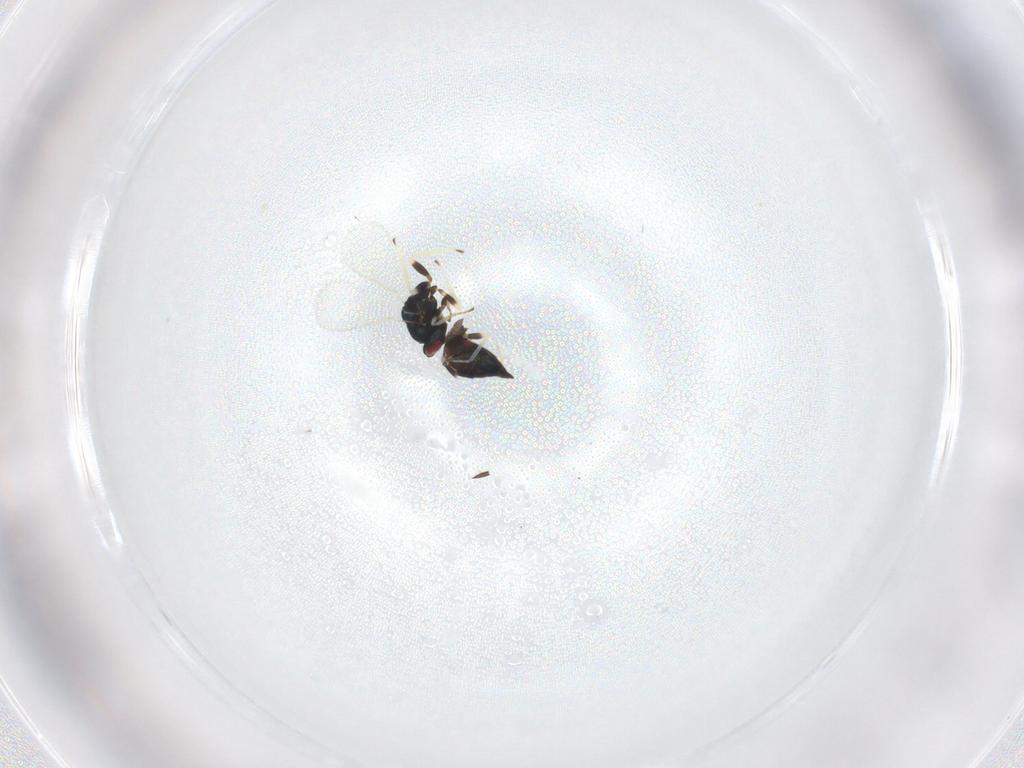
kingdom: Animalia
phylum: Arthropoda
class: Insecta
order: Hymenoptera
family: Eulophidae
